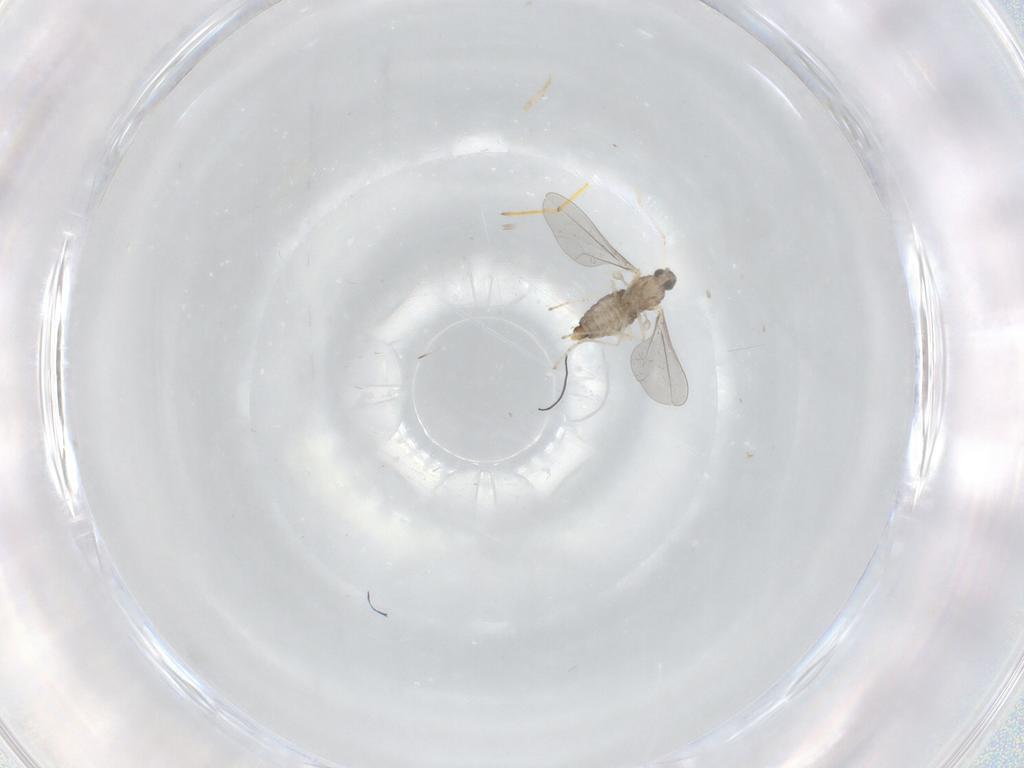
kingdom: Animalia
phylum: Arthropoda
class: Insecta
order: Diptera
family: Cecidomyiidae
